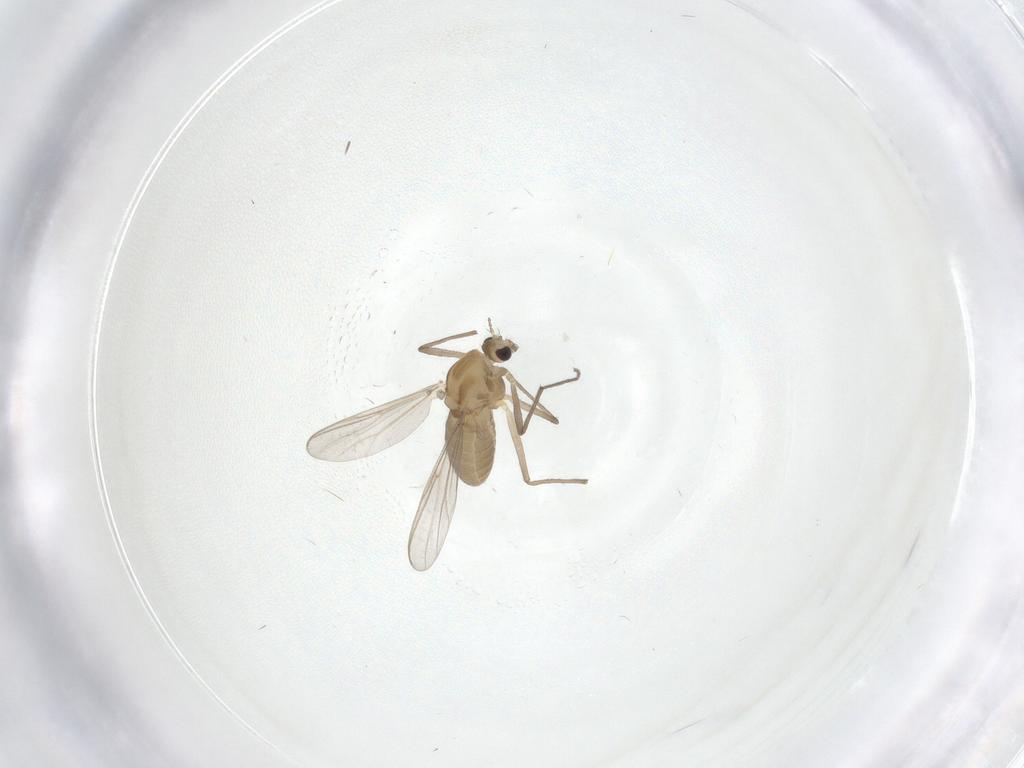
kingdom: Animalia
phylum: Arthropoda
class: Insecta
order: Diptera
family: Chironomidae
